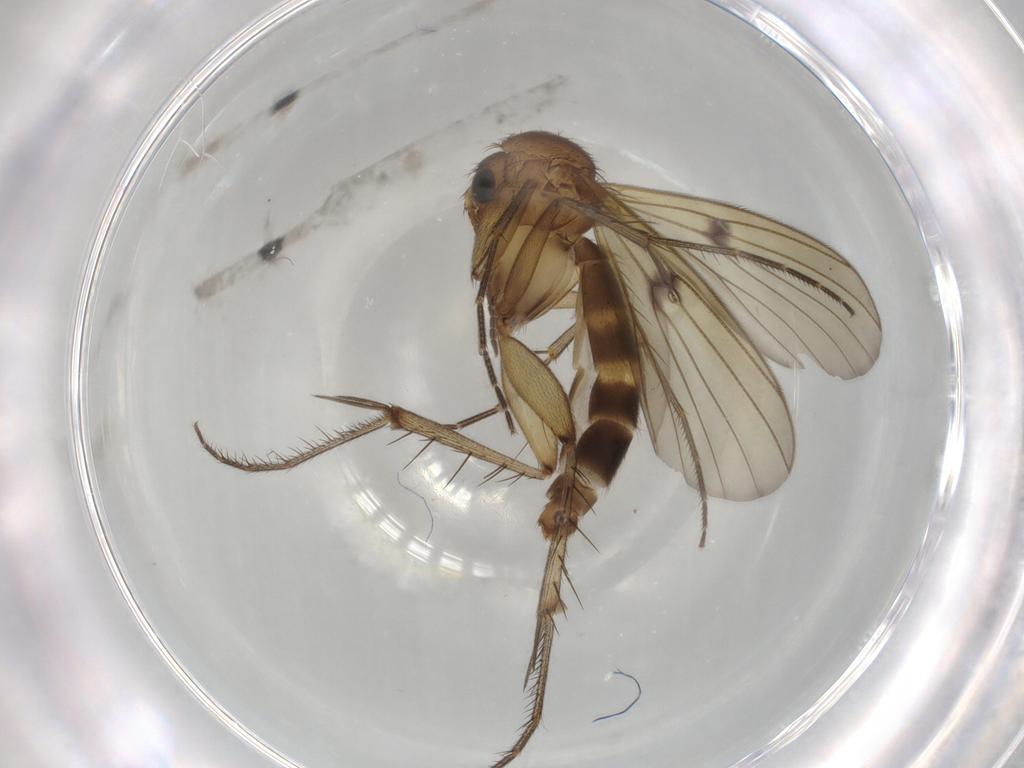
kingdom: Animalia
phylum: Arthropoda
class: Insecta
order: Diptera
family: Mycetophilidae
